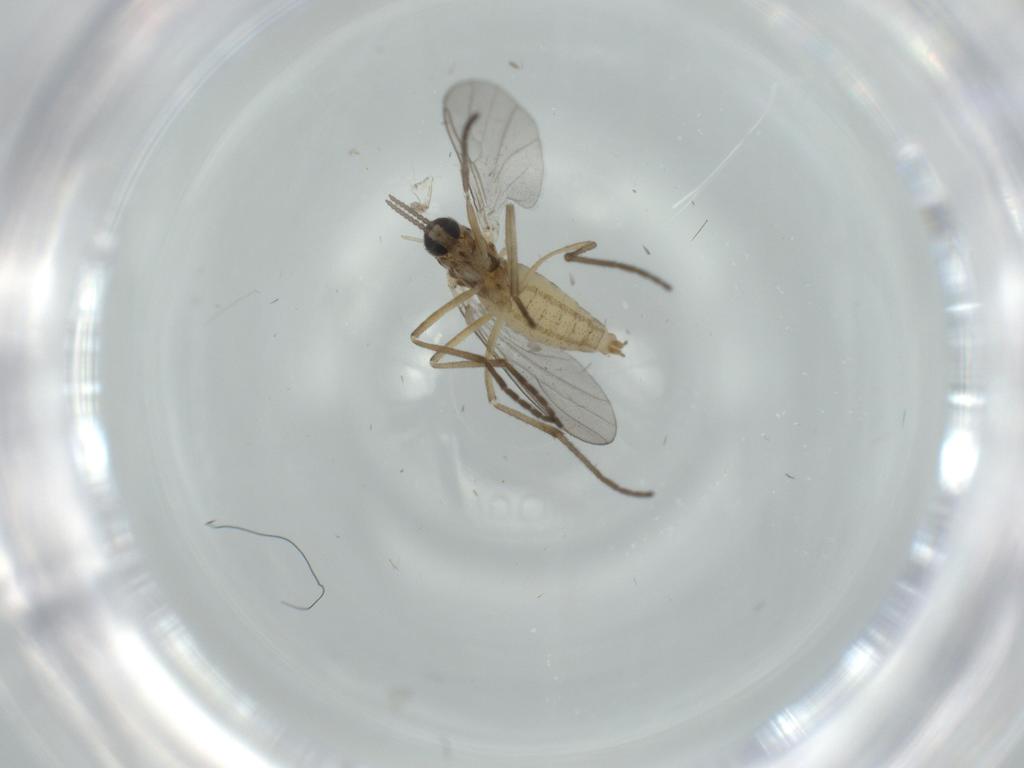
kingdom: Animalia
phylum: Arthropoda
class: Insecta
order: Diptera
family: Cecidomyiidae
